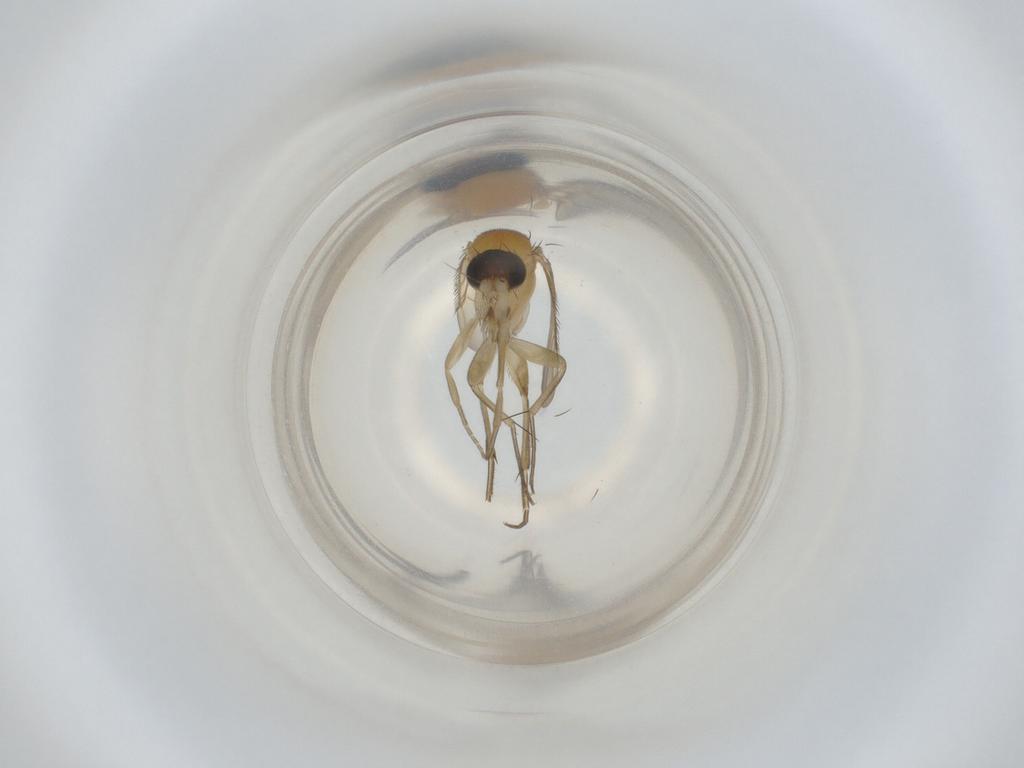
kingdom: Animalia
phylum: Arthropoda
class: Insecta
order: Diptera
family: Phoridae
